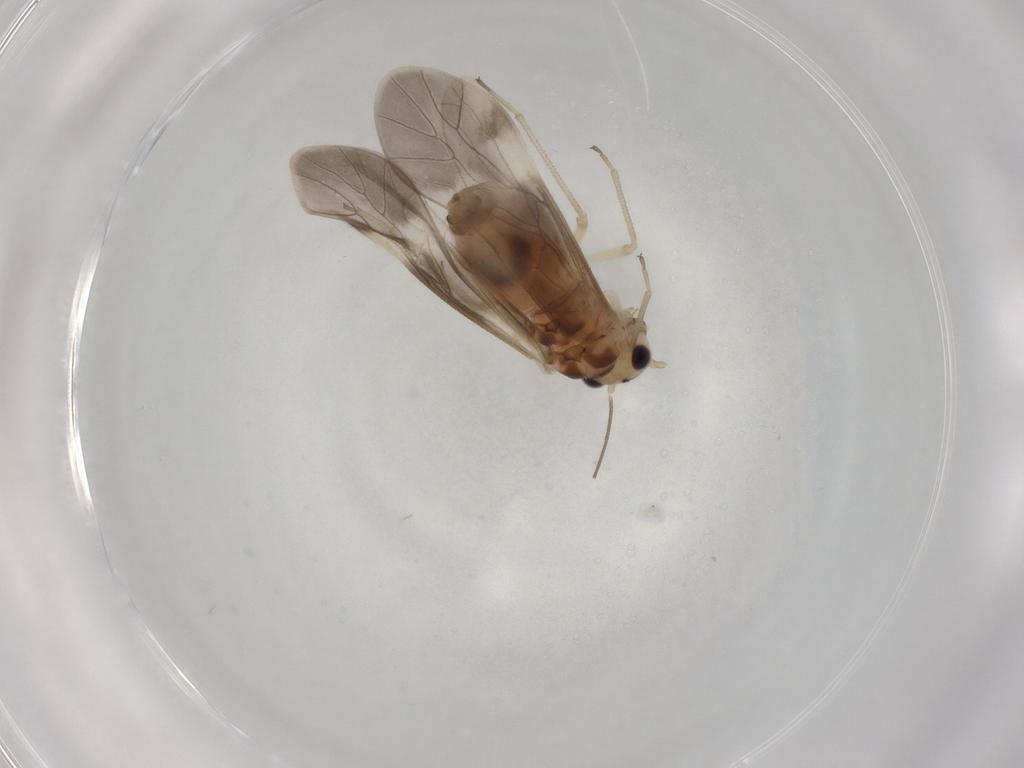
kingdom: Animalia
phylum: Arthropoda
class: Insecta
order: Psocodea
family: Caeciliusidae
